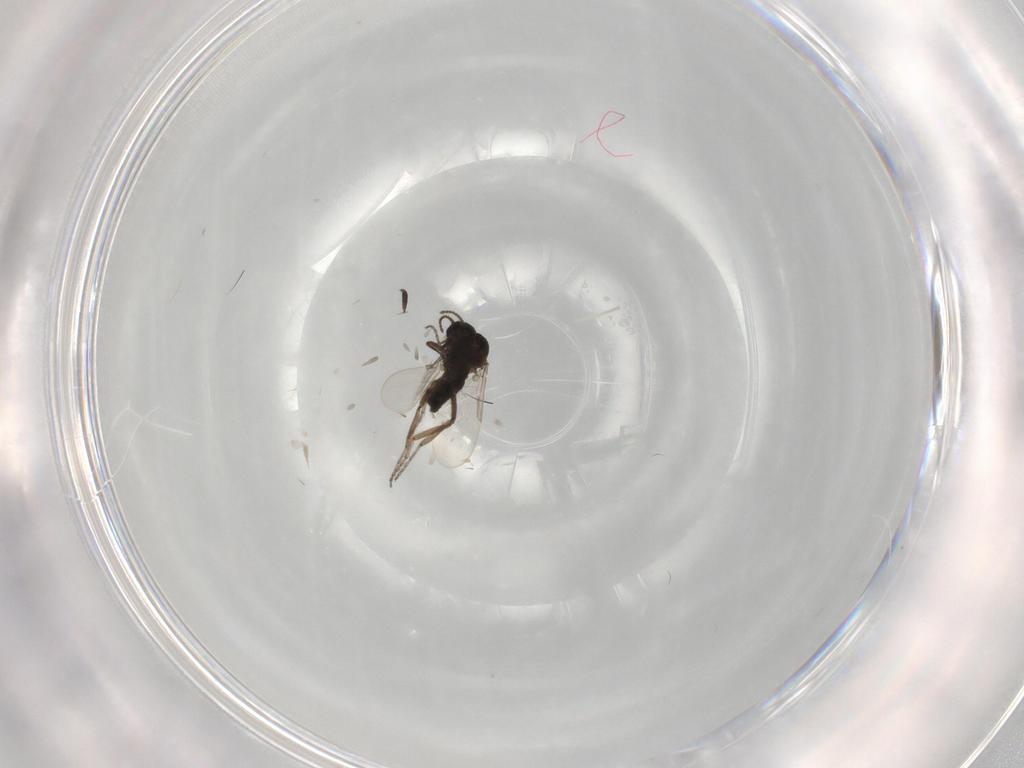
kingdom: Animalia
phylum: Arthropoda
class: Insecta
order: Diptera
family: Ceratopogonidae
